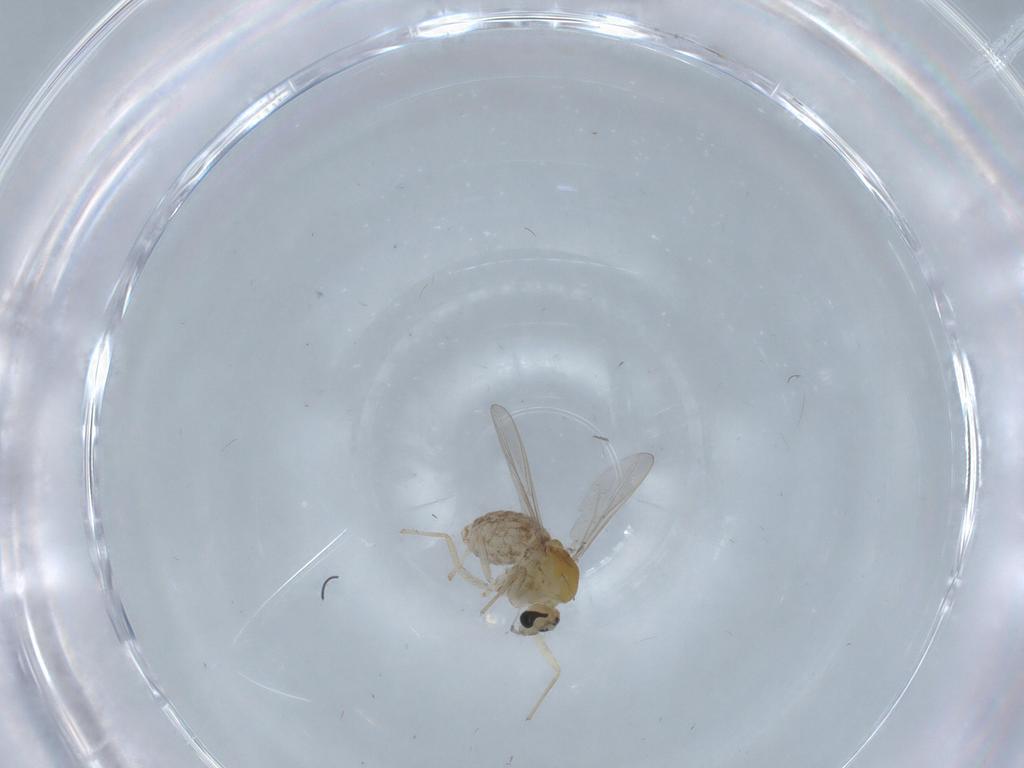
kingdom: Animalia
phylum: Arthropoda
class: Insecta
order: Diptera
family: Chironomidae
